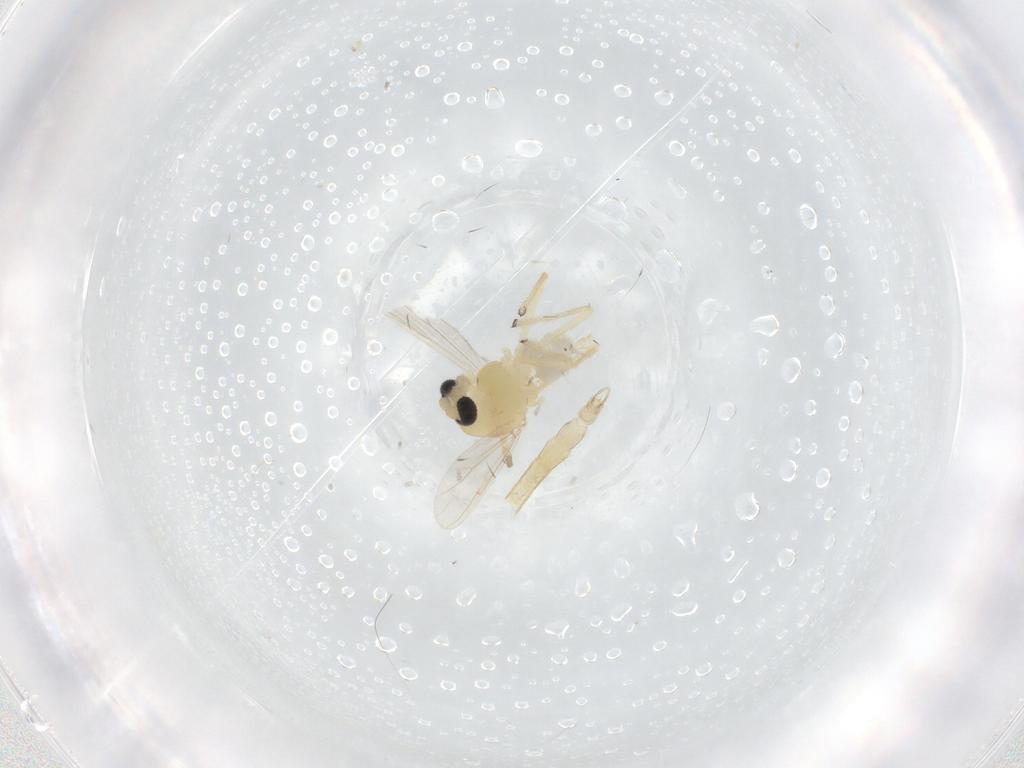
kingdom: Animalia
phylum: Arthropoda
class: Insecta
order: Diptera
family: Chironomidae
